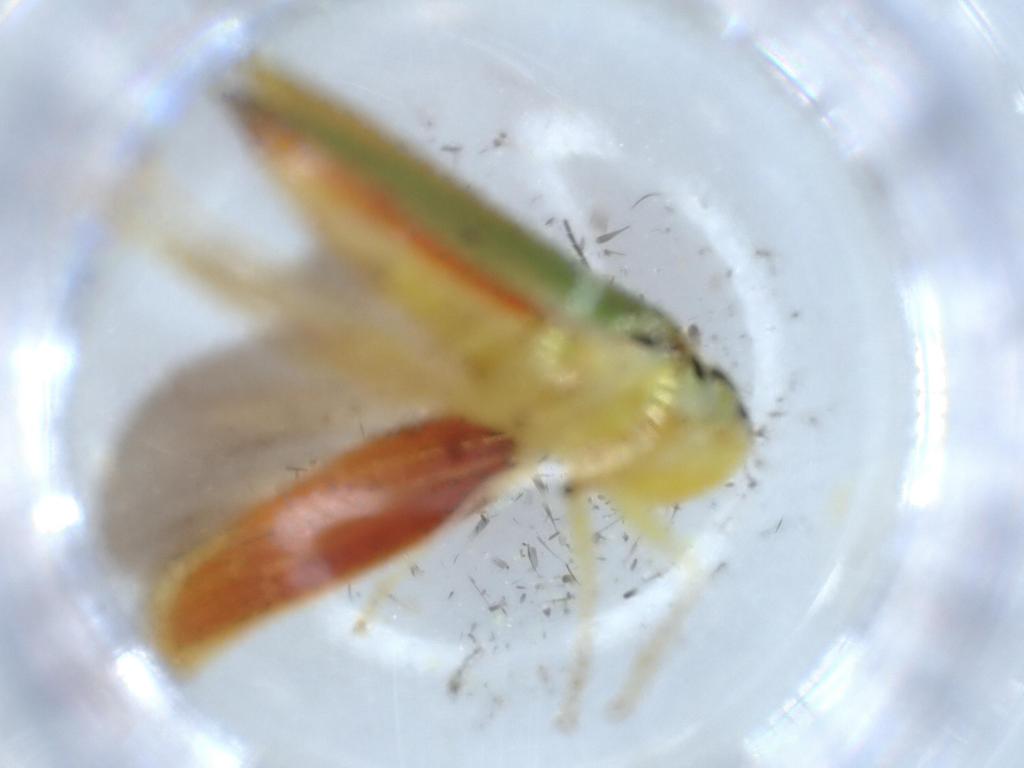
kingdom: Animalia
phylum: Arthropoda
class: Insecta
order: Hemiptera
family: Cicadellidae
